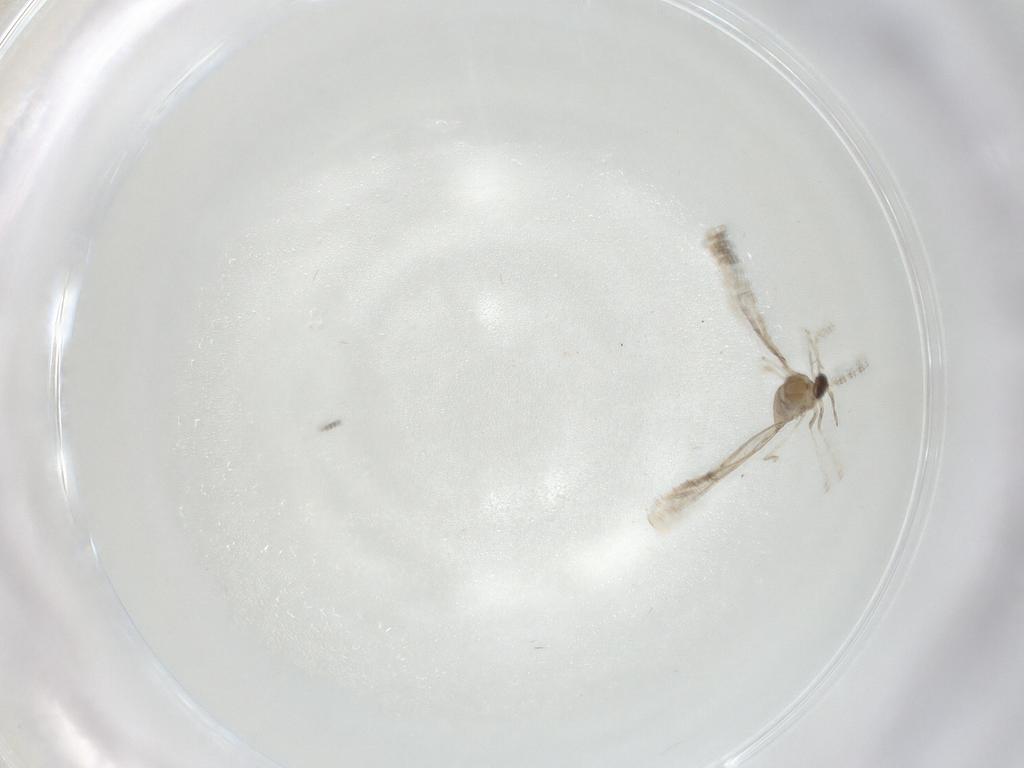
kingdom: Animalia
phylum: Arthropoda
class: Insecta
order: Diptera
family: Cecidomyiidae
